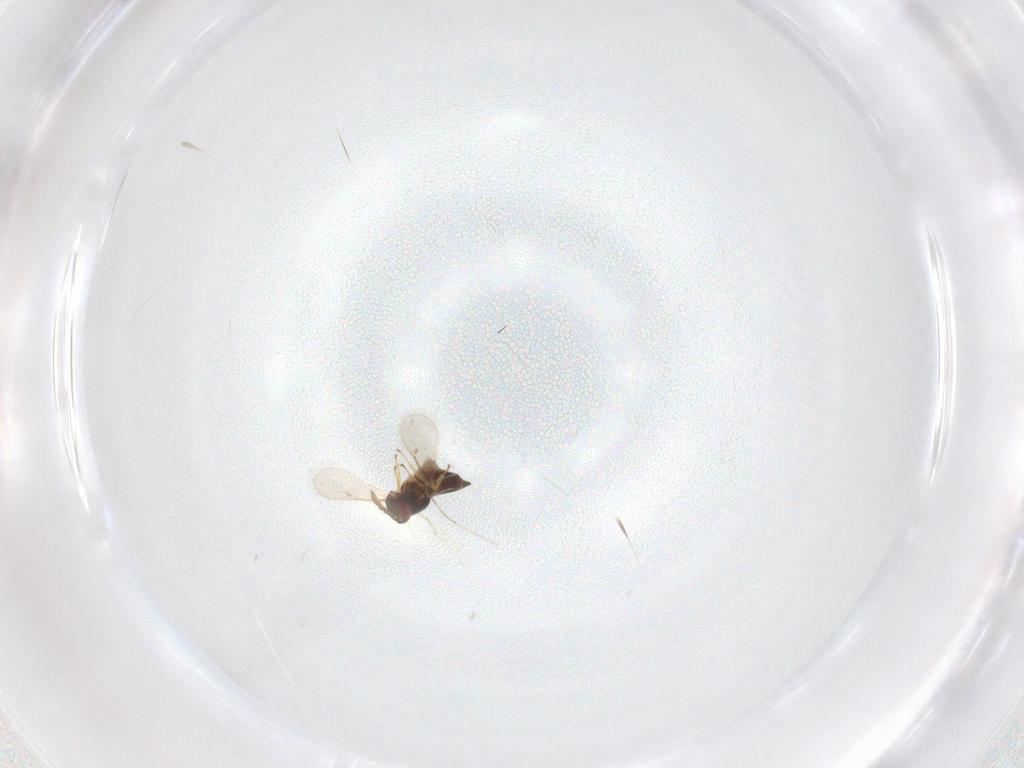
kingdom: Animalia
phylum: Arthropoda
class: Insecta
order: Hymenoptera
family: Eulophidae
